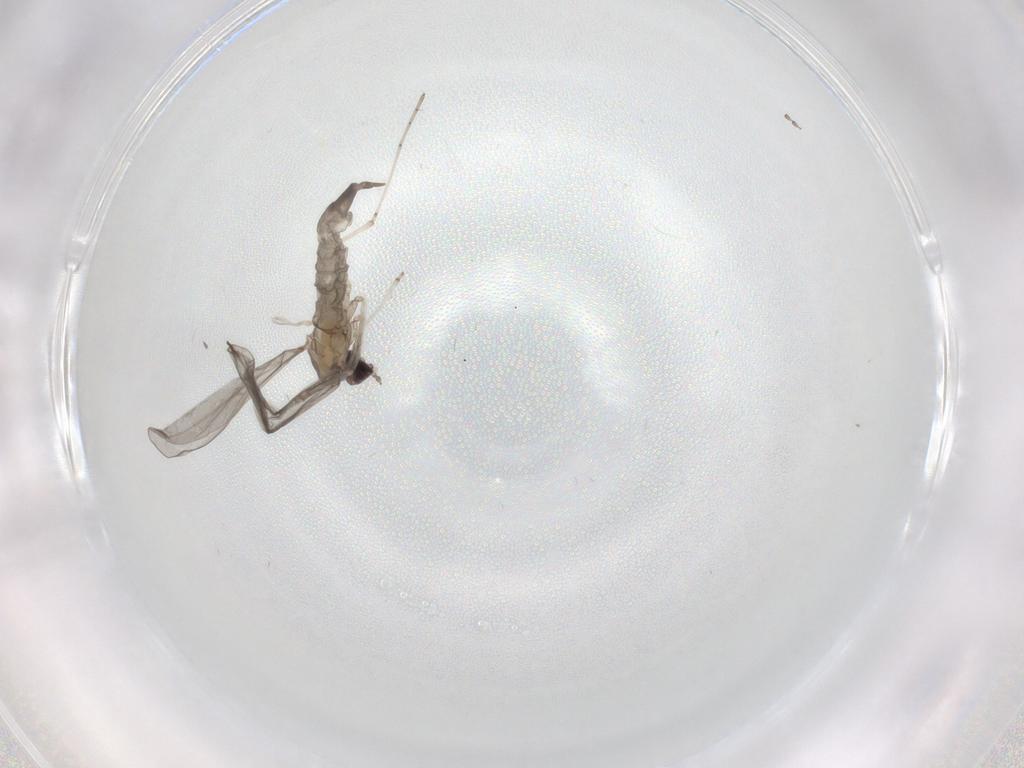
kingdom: Animalia
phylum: Arthropoda
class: Insecta
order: Diptera
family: Cecidomyiidae
